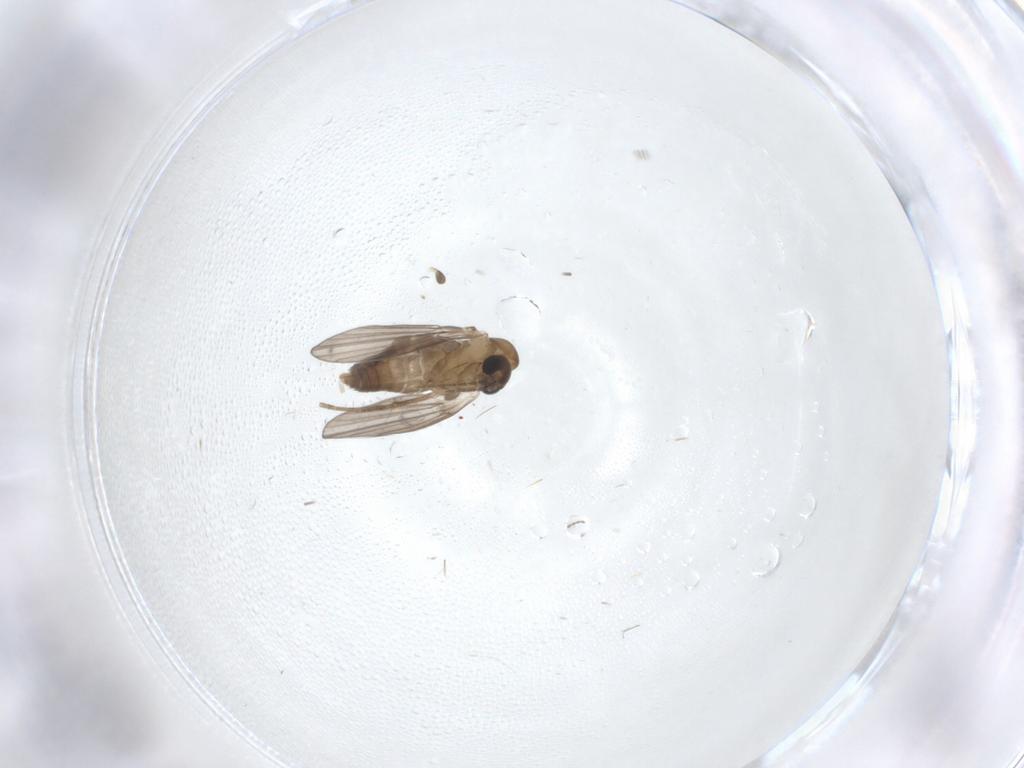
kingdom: Animalia
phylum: Arthropoda
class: Insecta
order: Diptera
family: Phoridae
